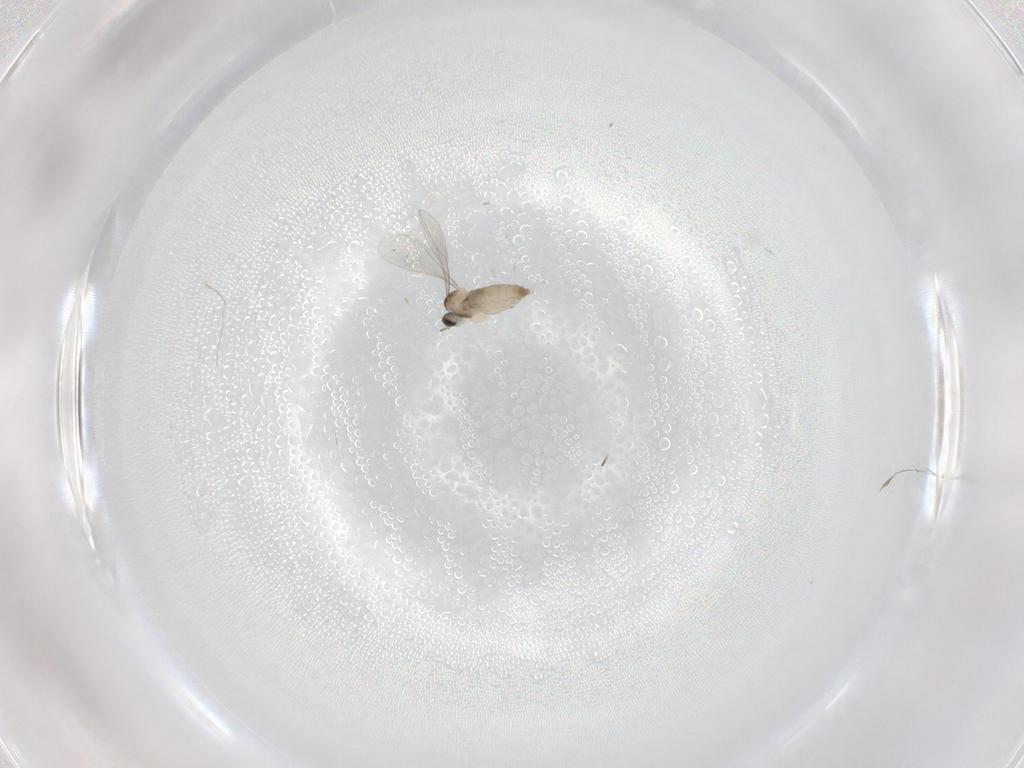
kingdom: Animalia
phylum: Arthropoda
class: Insecta
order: Diptera
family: Cecidomyiidae
